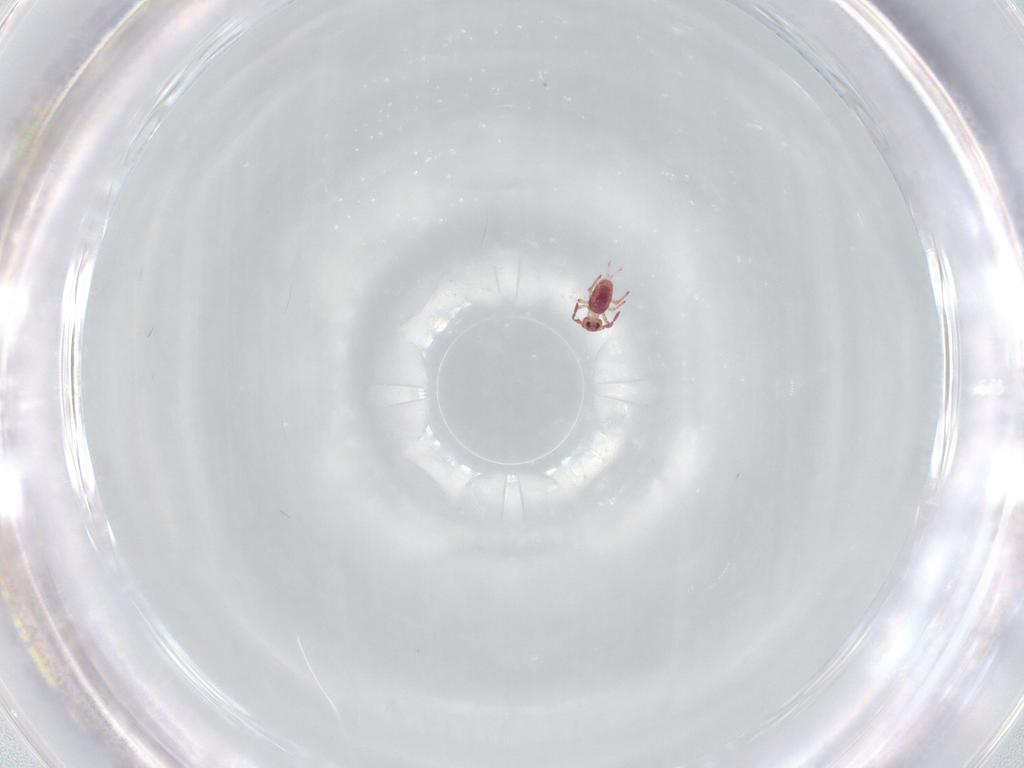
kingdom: Animalia
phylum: Arthropoda
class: Collembola
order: Symphypleona
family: Sminthurididae
